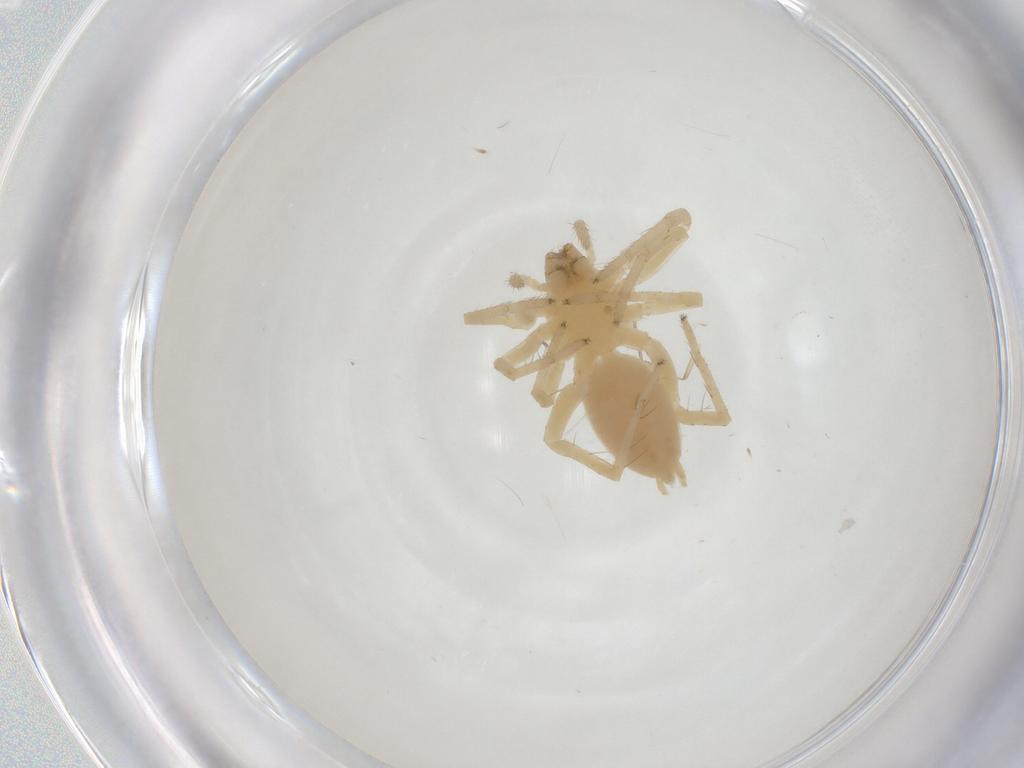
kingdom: Animalia
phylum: Arthropoda
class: Arachnida
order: Araneae
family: Anyphaenidae
